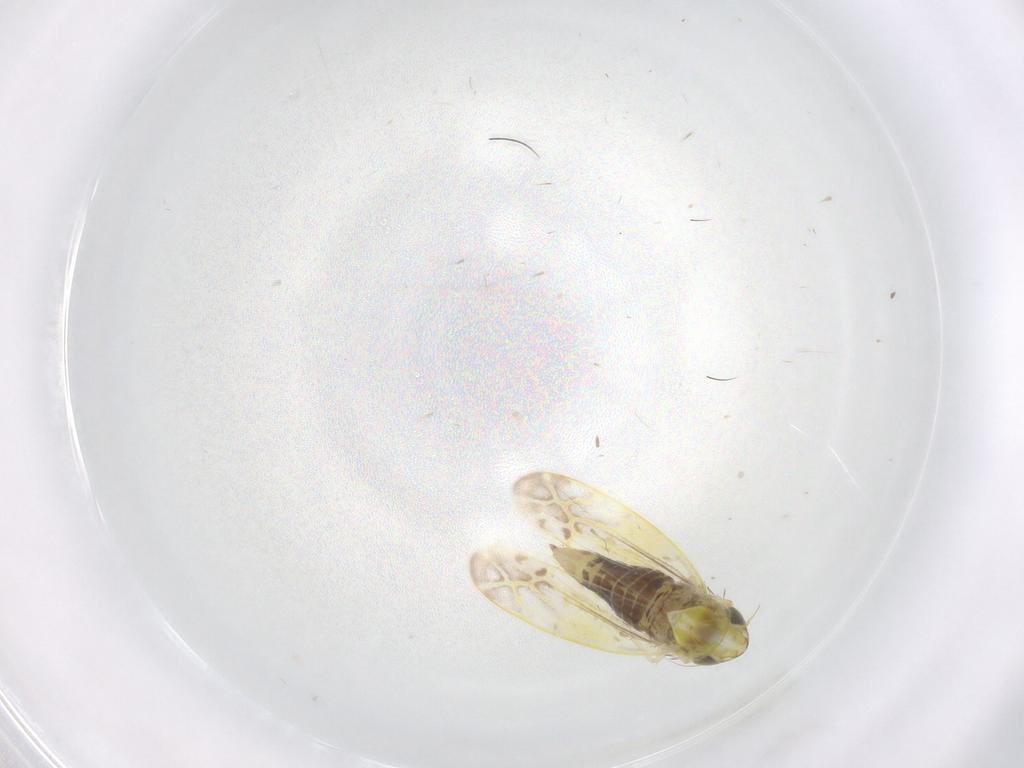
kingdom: Animalia
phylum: Arthropoda
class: Insecta
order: Hemiptera
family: Cicadellidae
